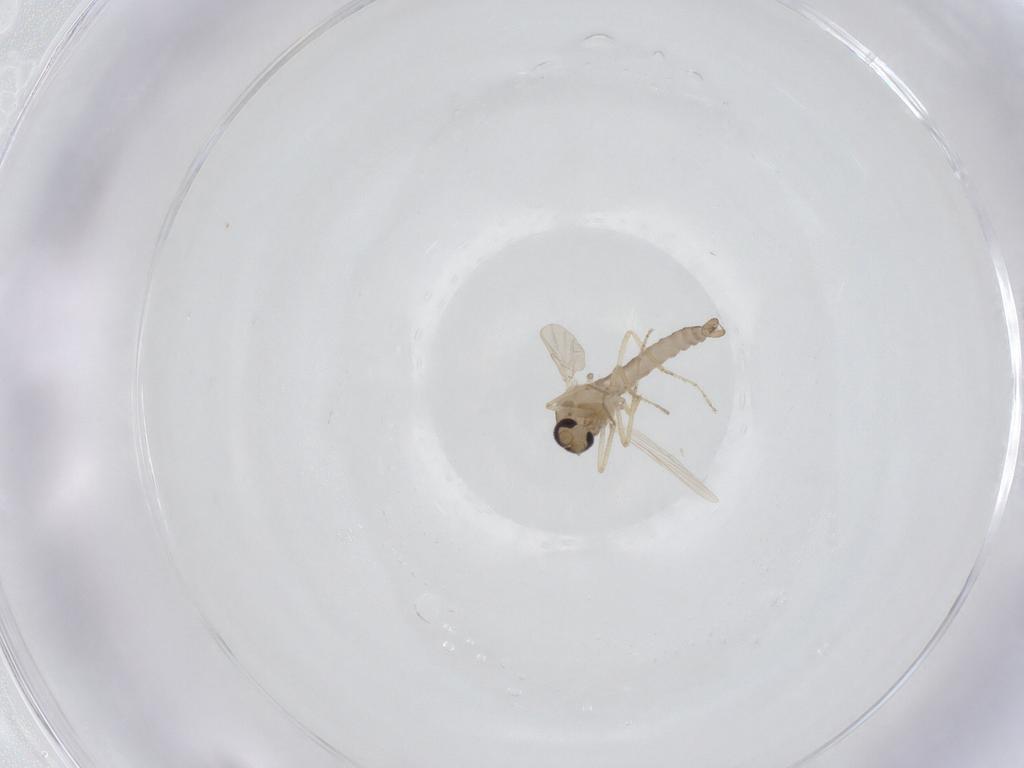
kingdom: Animalia
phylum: Arthropoda
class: Insecta
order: Diptera
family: Ceratopogonidae
